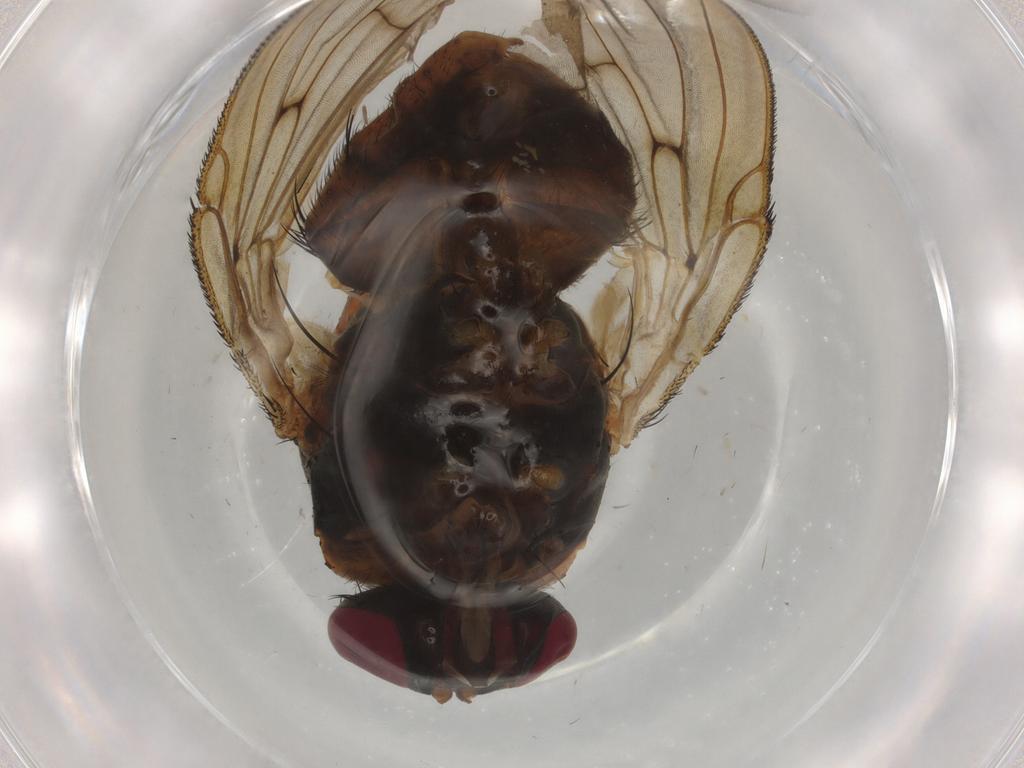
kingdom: Animalia
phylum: Arthropoda
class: Insecta
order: Diptera
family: Muscidae
